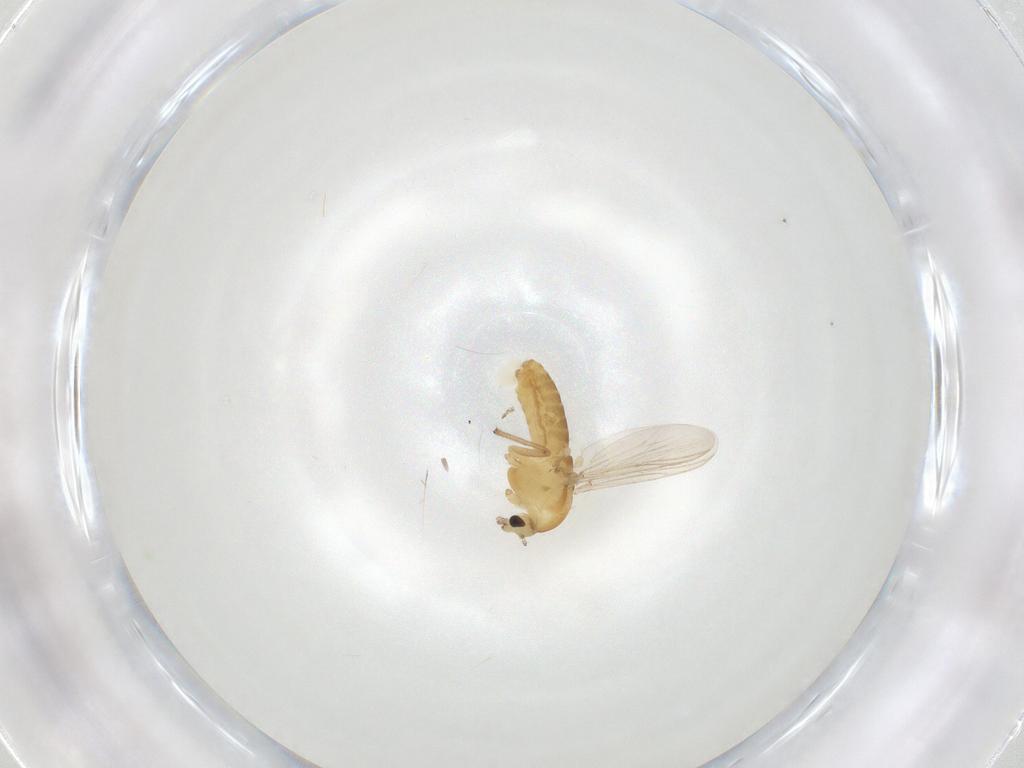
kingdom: Animalia
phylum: Arthropoda
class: Insecta
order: Diptera
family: Chironomidae
